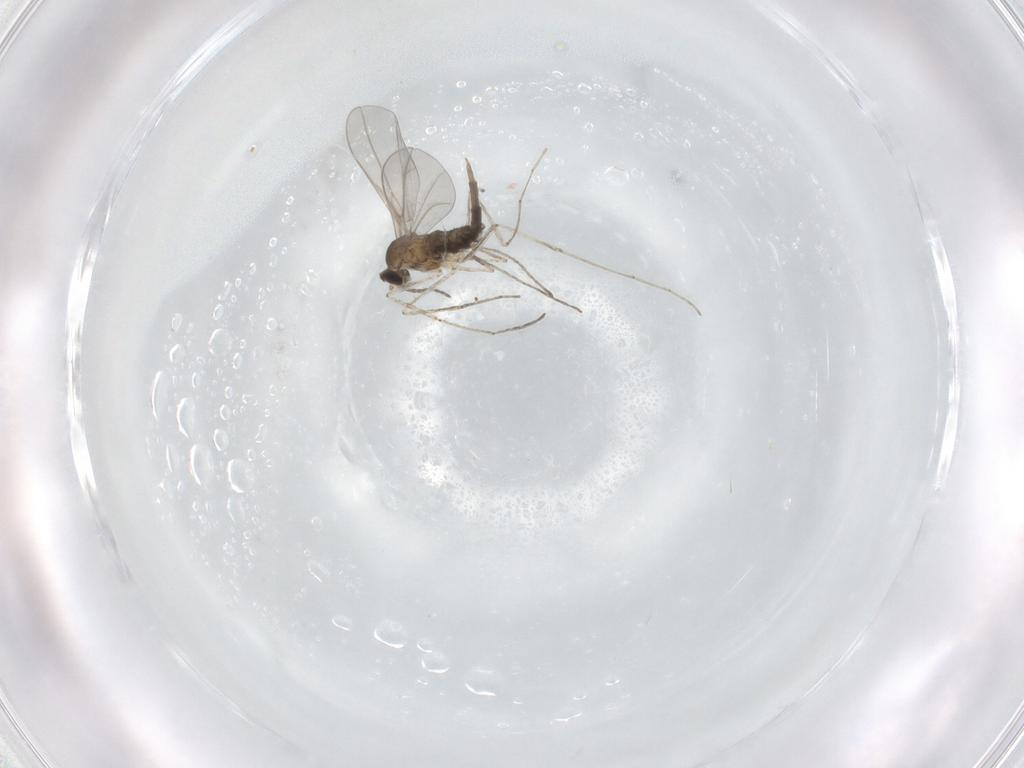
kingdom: Animalia
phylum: Arthropoda
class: Insecta
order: Diptera
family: Cecidomyiidae
